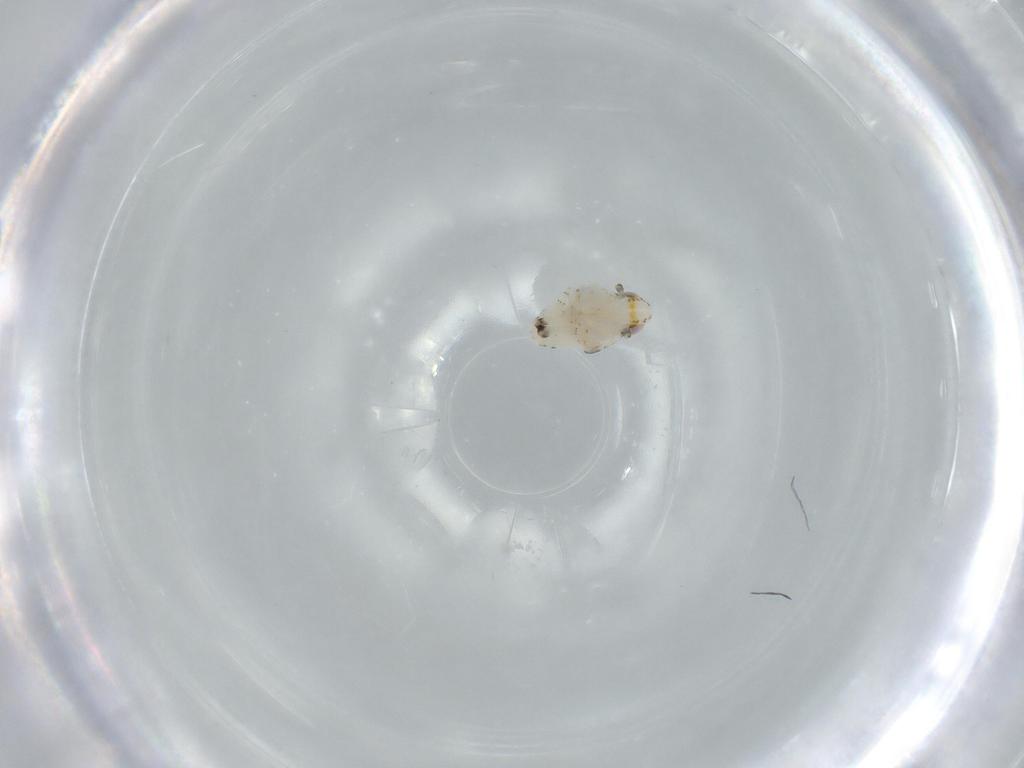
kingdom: Animalia
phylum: Arthropoda
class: Insecta
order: Hemiptera
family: Nogodinidae
